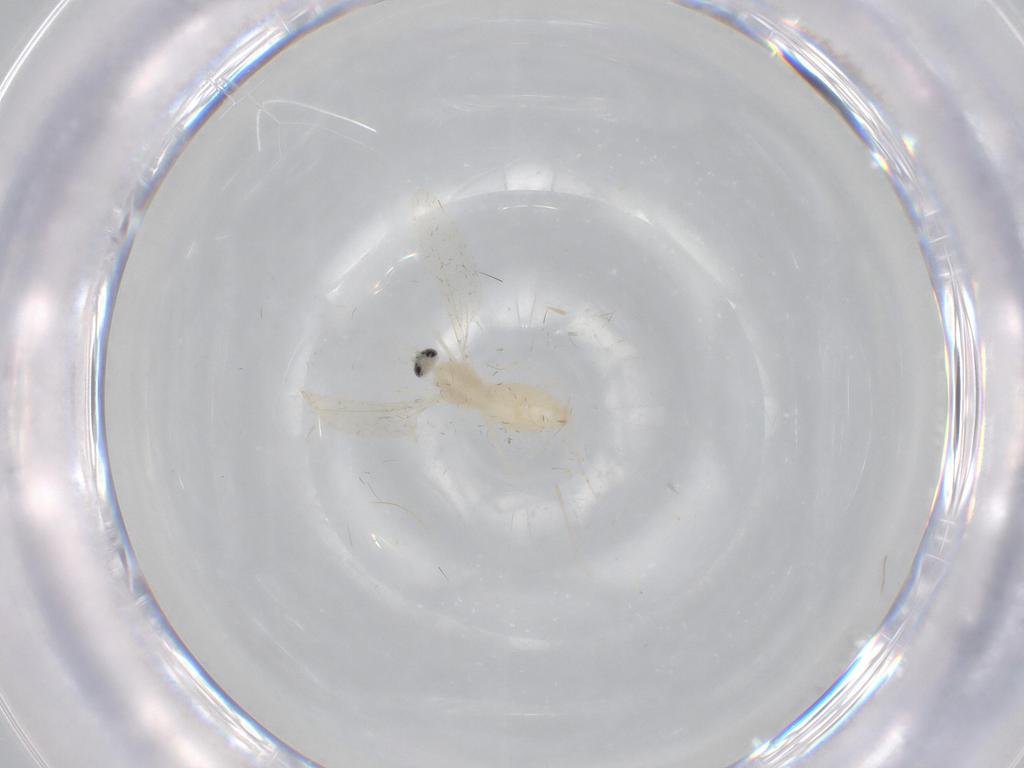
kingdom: Animalia
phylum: Arthropoda
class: Insecta
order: Diptera
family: Cecidomyiidae
